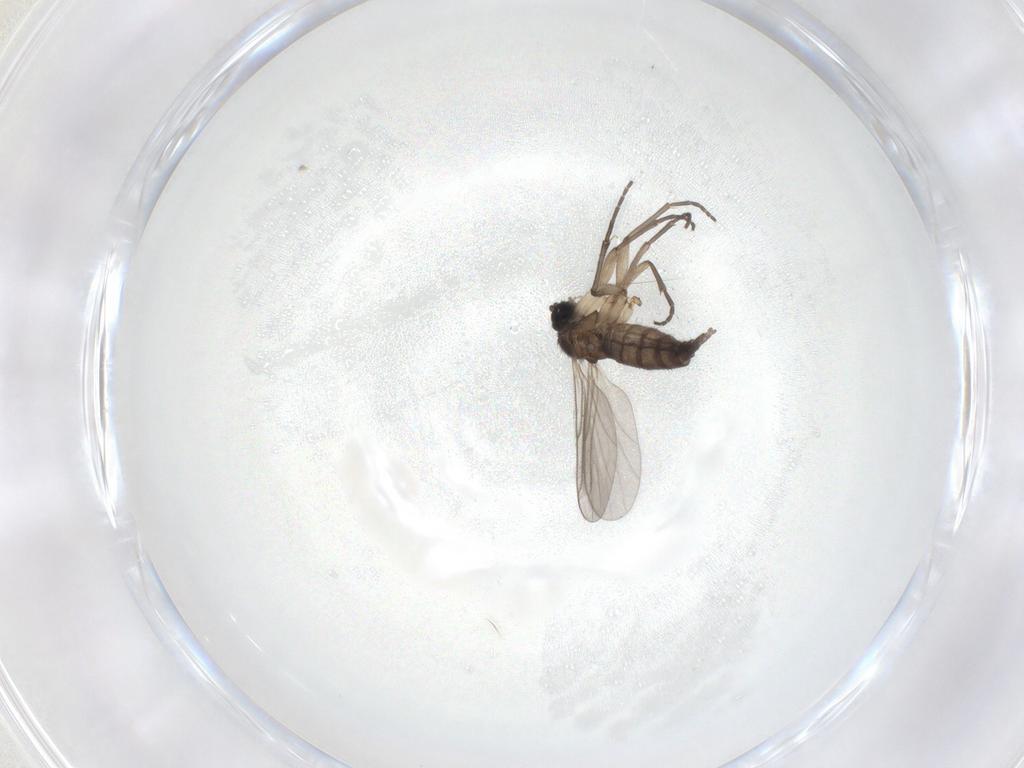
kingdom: Animalia
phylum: Arthropoda
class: Insecta
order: Diptera
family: Sciaridae
